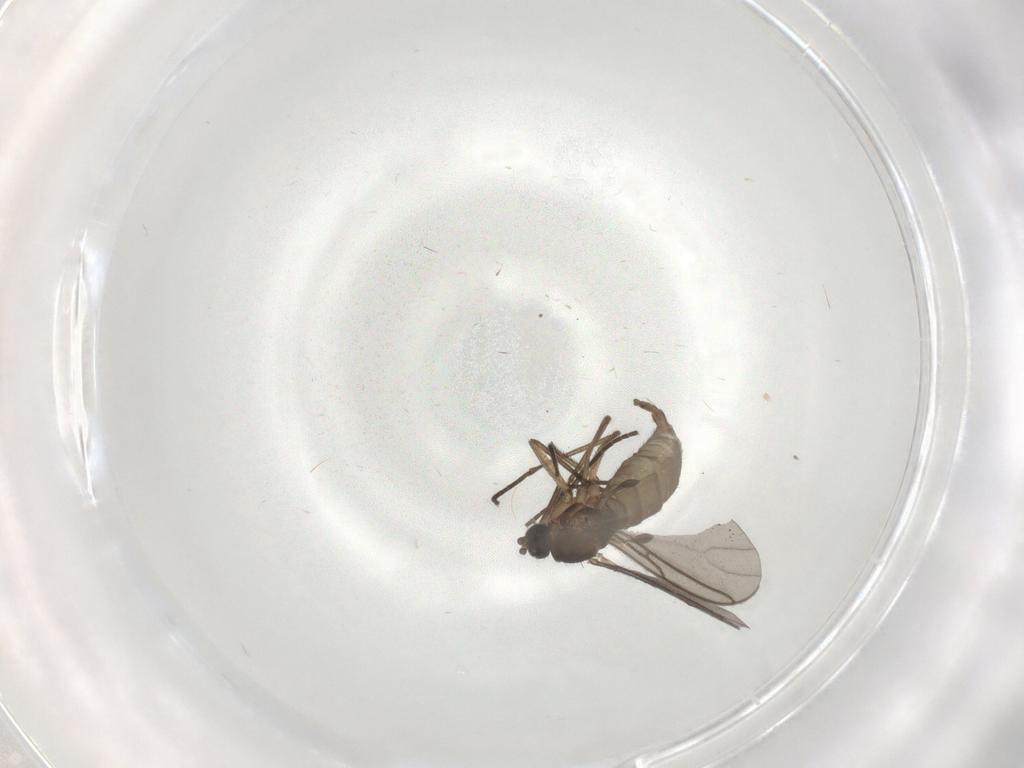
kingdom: Animalia
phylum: Arthropoda
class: Insecta
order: Diptera
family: Sciaridae
